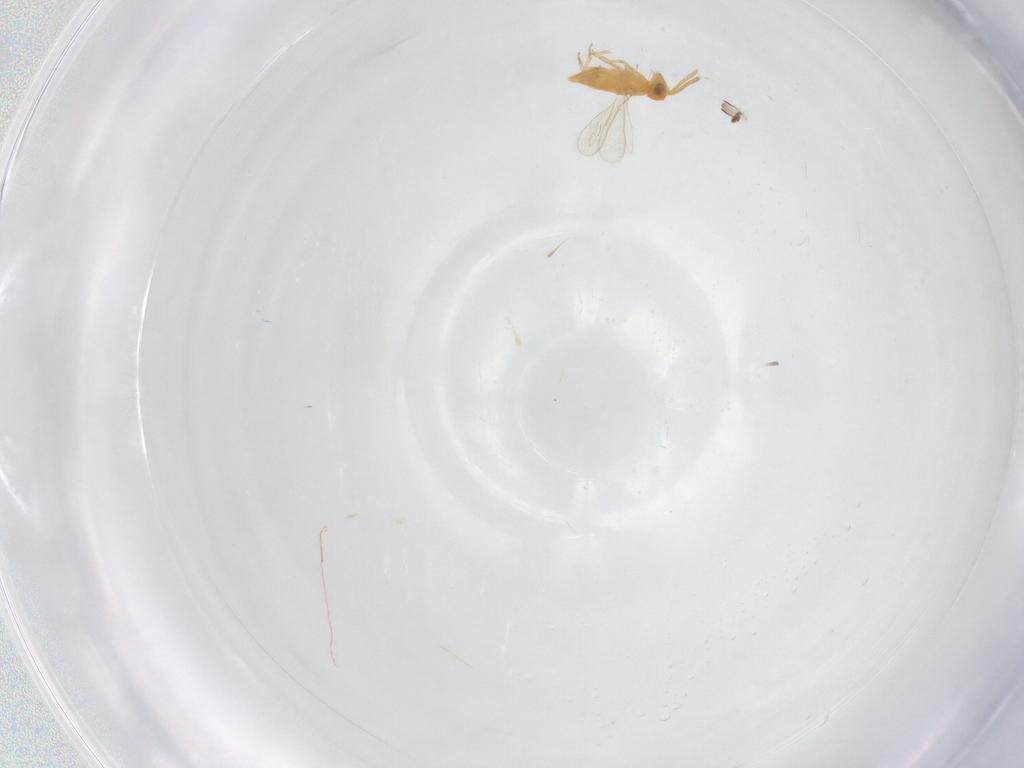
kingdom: Animalia
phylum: Arthropoda
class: Insecta
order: Hymenoptera
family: Aphelinidae
